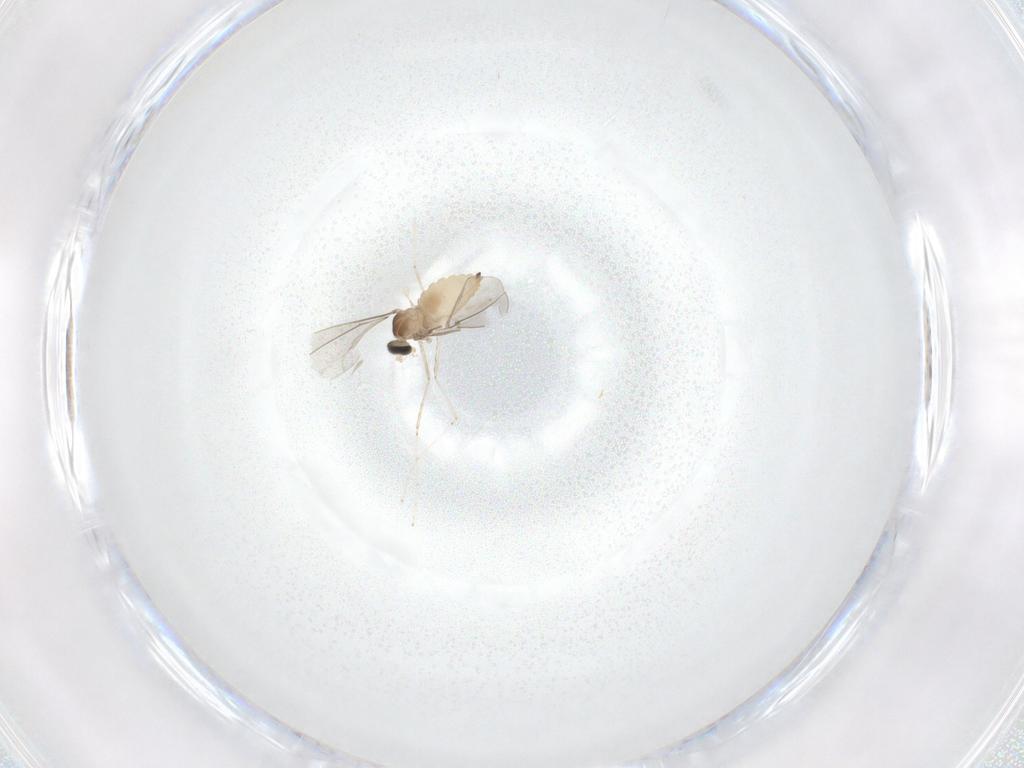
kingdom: Animalia
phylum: Arthropoda
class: Insecta
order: Diptera
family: Cecidomyiidae
